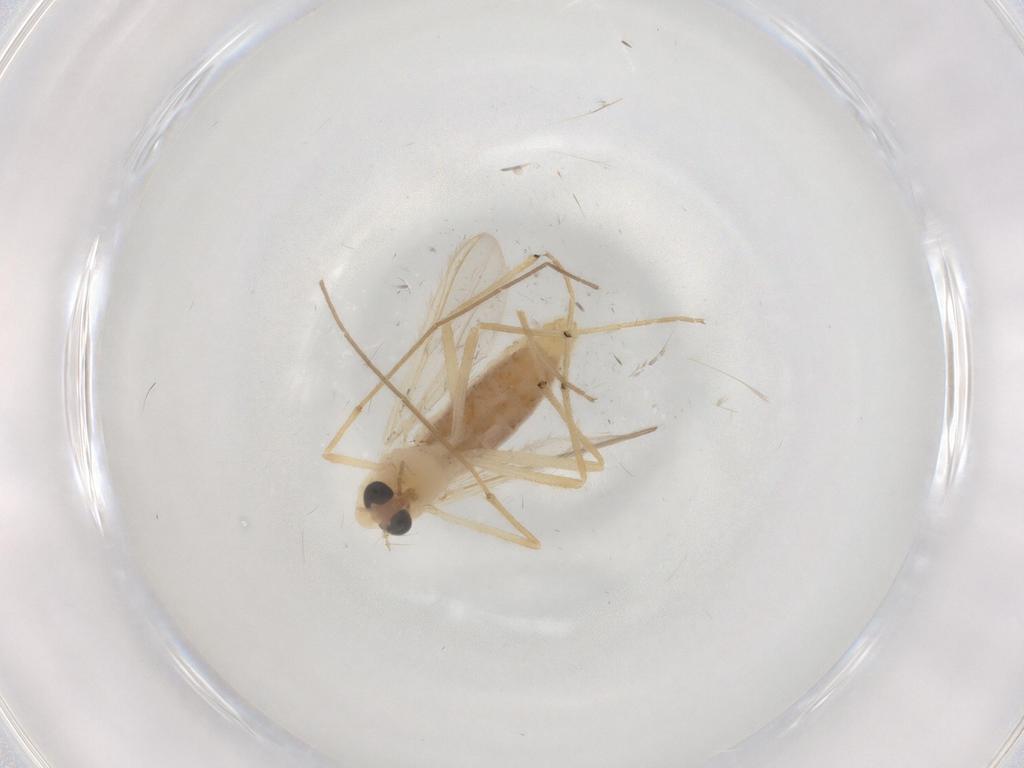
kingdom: Animalia
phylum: Arthropoda
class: Insecta
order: Diptera
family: Chironomidae
